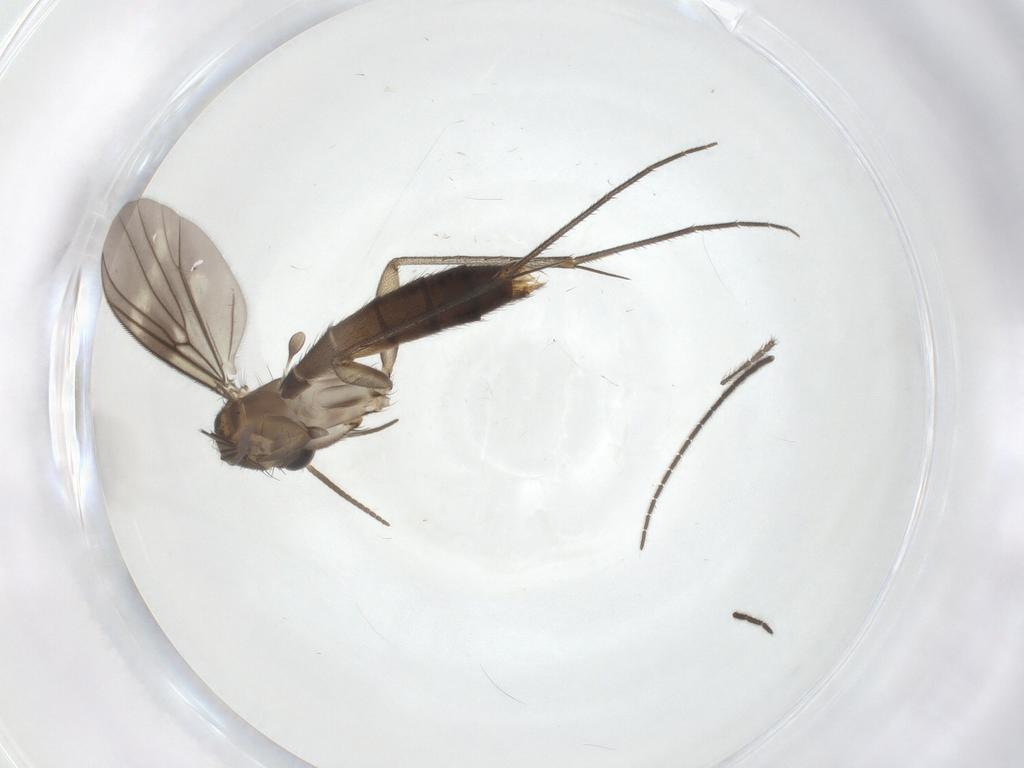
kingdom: Animalia
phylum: Arthropoda
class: Insecta
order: Diptera
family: Mycetophilidae
